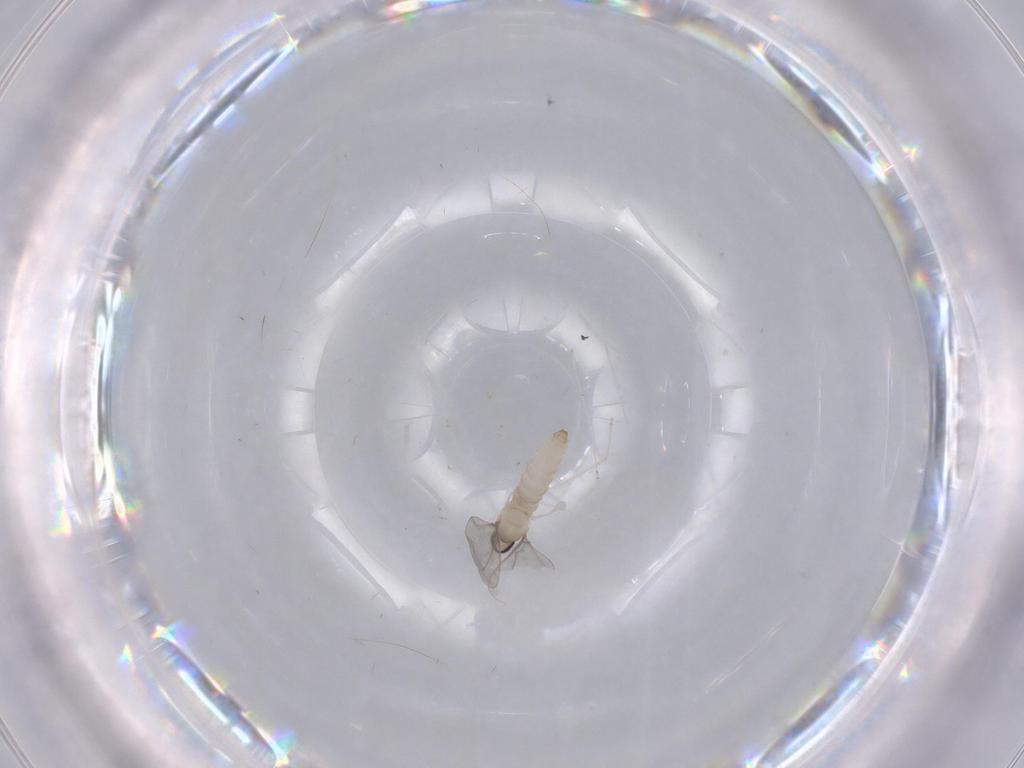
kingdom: Animalia
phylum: Arthropoda
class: Insecta
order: Diptera
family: Cecidomyiidae
